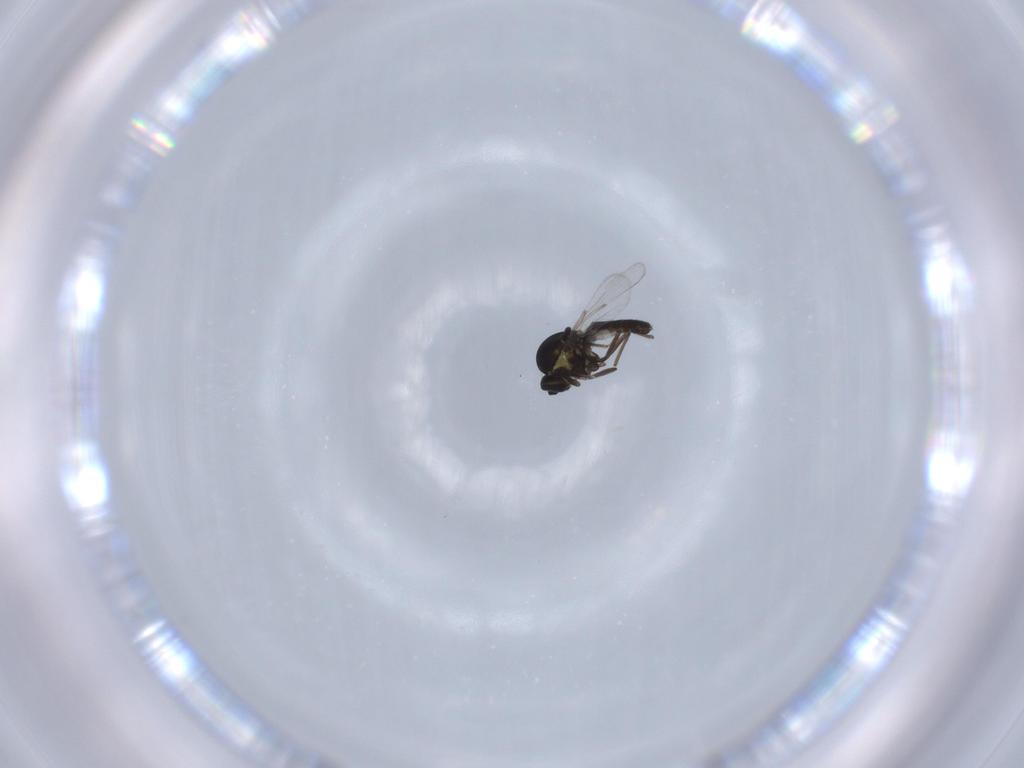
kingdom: Animalia
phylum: Arthropoda
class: Insecta
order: Diptera
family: Ceratopogonidae
